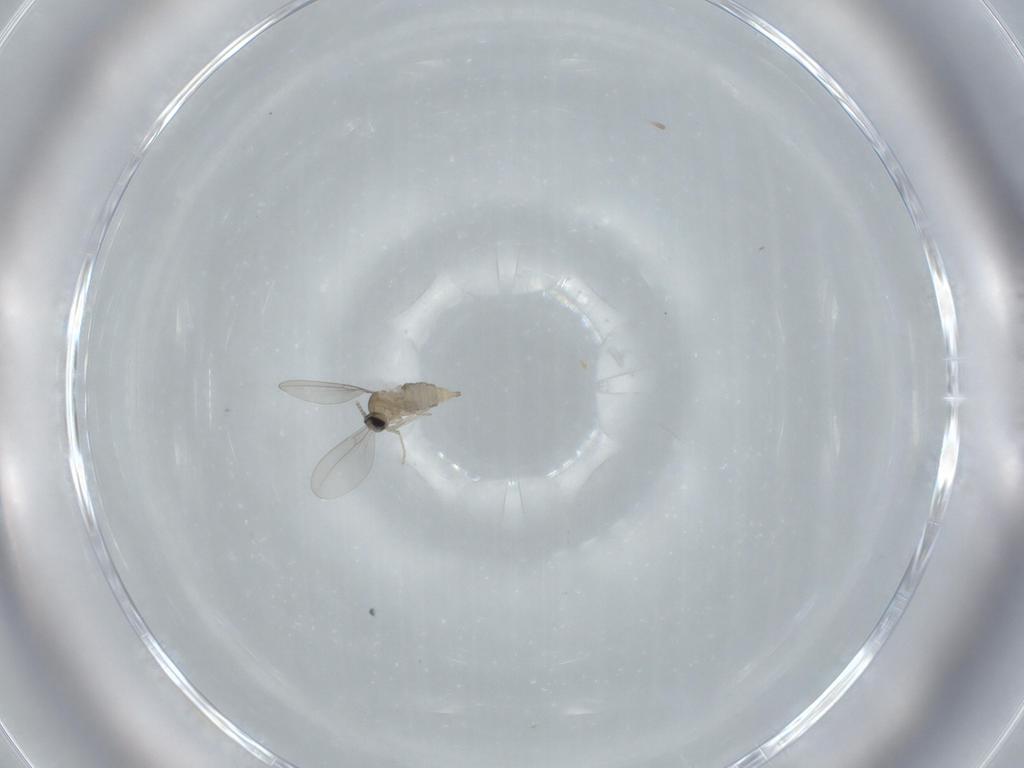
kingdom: Animalia
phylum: Arthropoda
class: Insecta
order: Diptera
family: Cecidomyiidae
